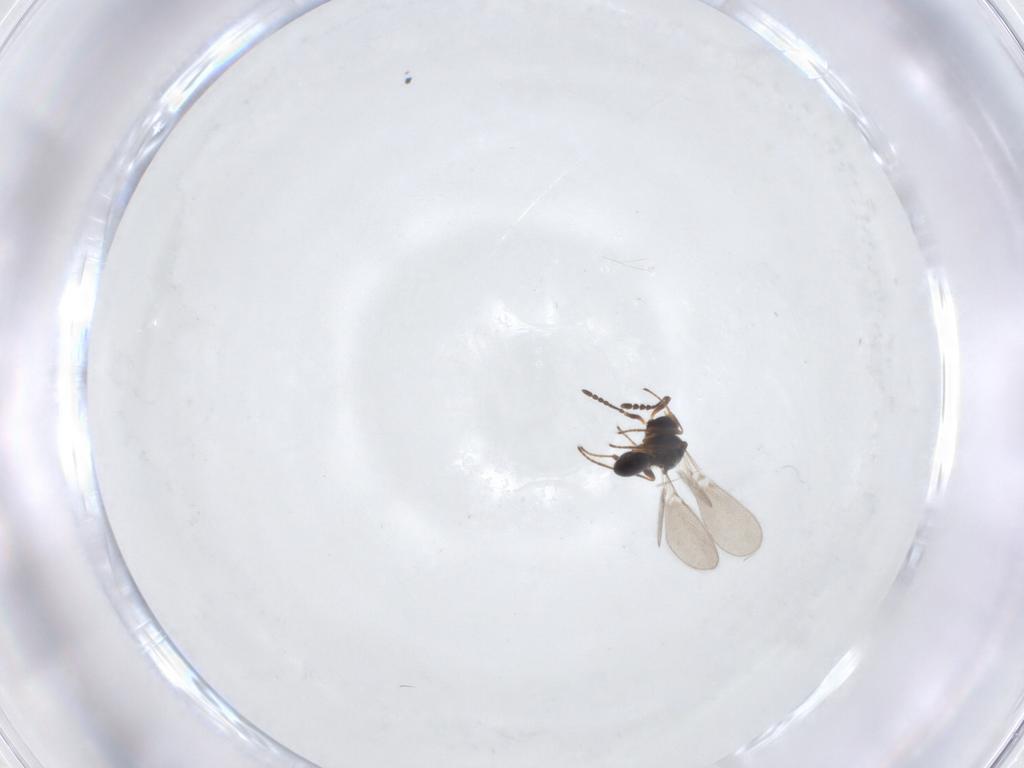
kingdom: Animalia
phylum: Arthropoda
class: Insecta
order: Hymenoptera
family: Platygastridae
